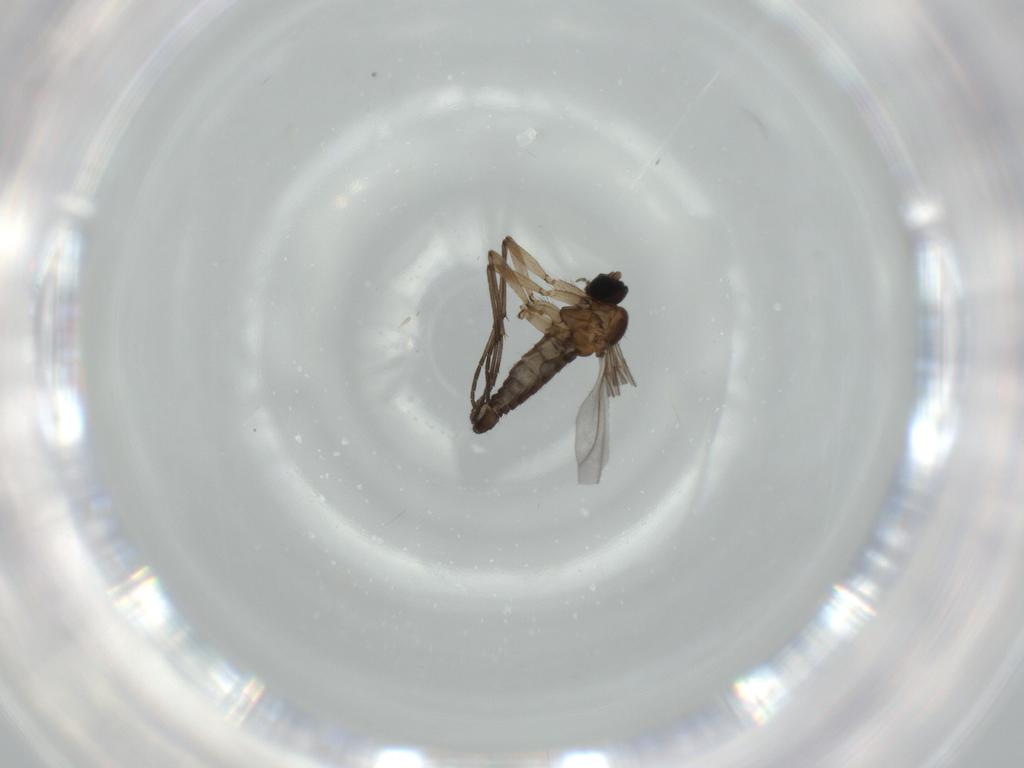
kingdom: Animalia
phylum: Arthropoda
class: Insecta
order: Diptera
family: Sciaridae
